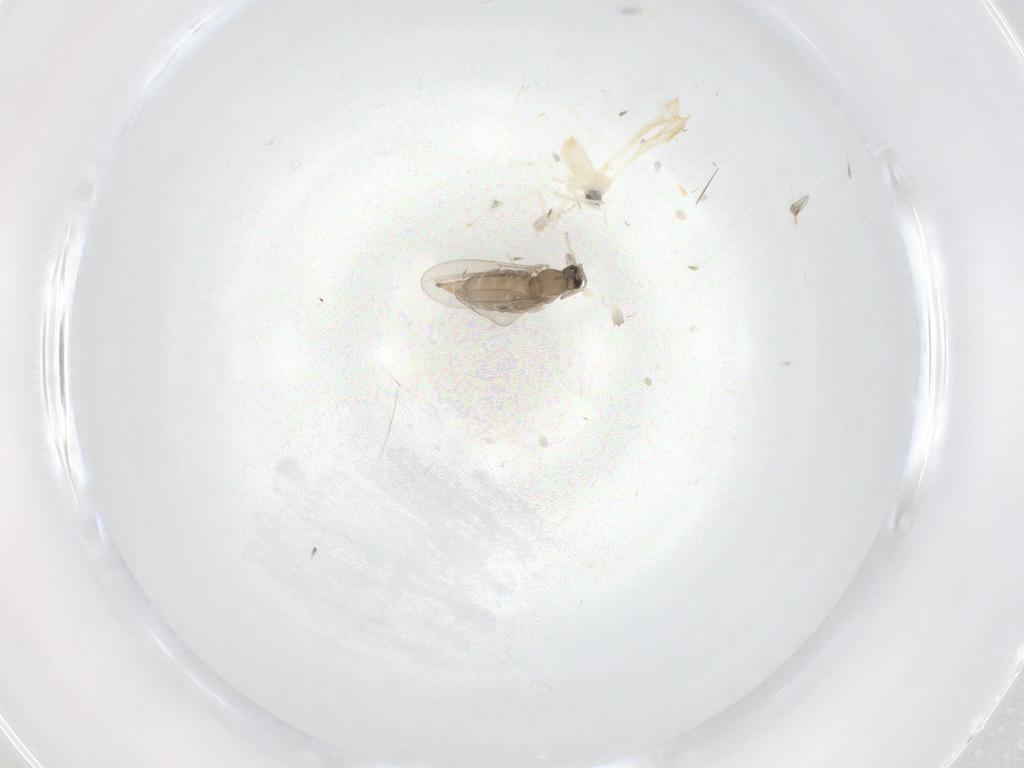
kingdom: Animalia
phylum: Arthropoda
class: Insecta
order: Diptera
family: Cecidomyiidae
